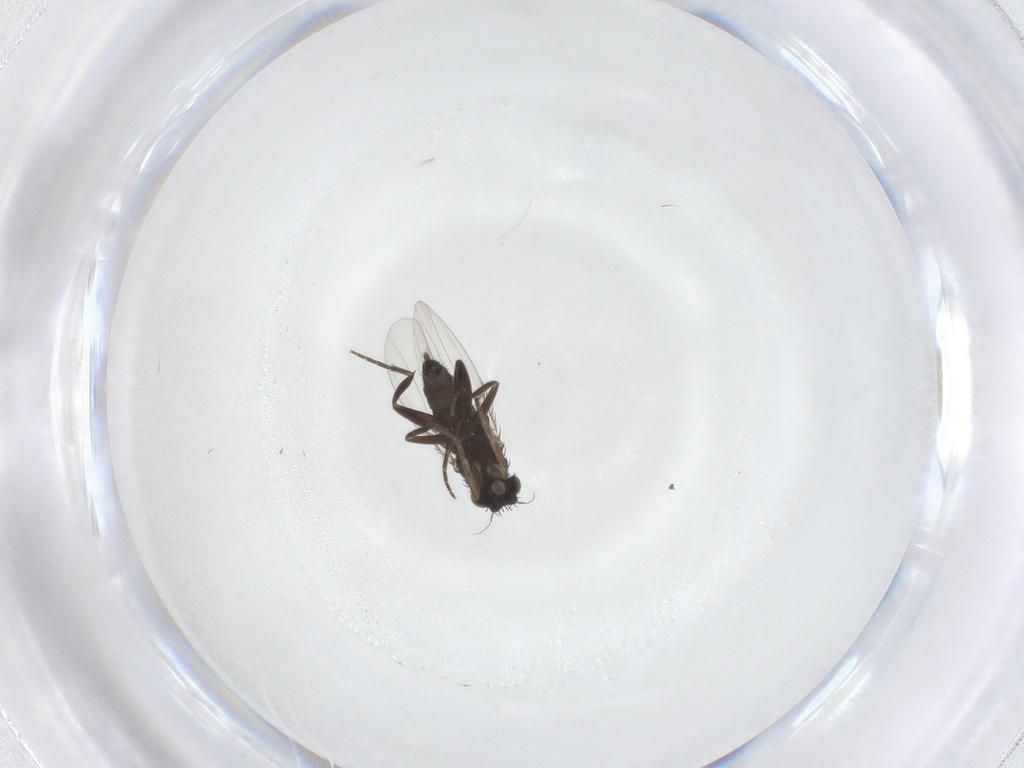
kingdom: Animalia
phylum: Arthropoda
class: Insecta
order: Diptera
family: Phoridae
